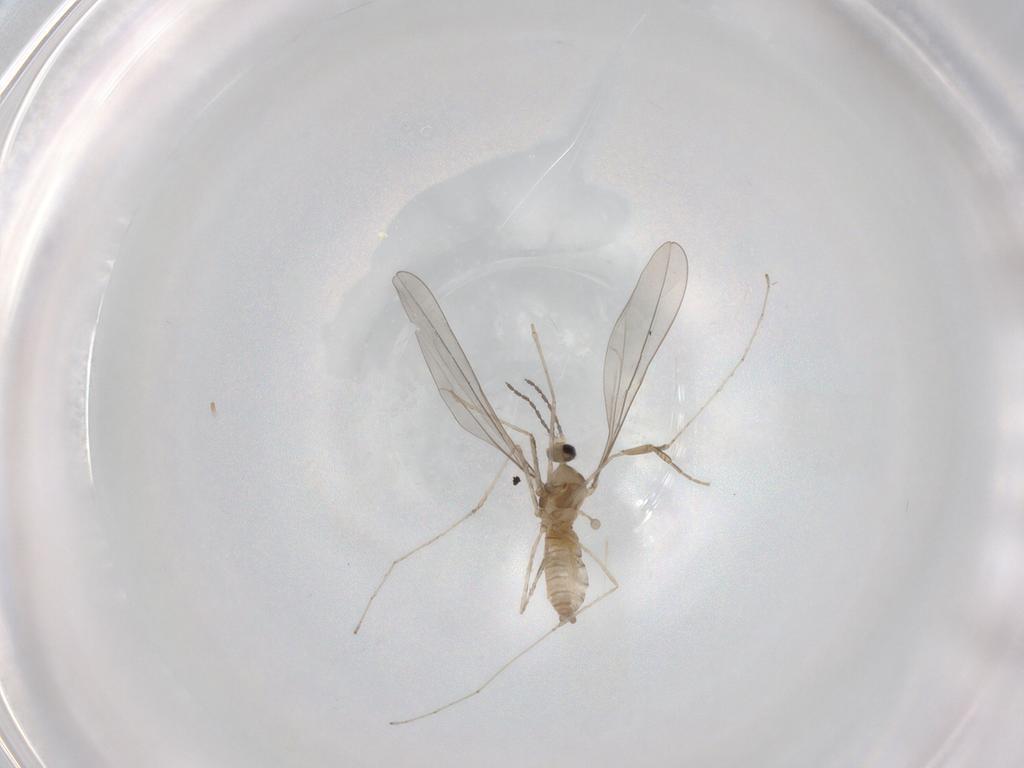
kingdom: Animalia
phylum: Arthropoda
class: Insecta
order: Diptera
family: Cecidomyiidae
